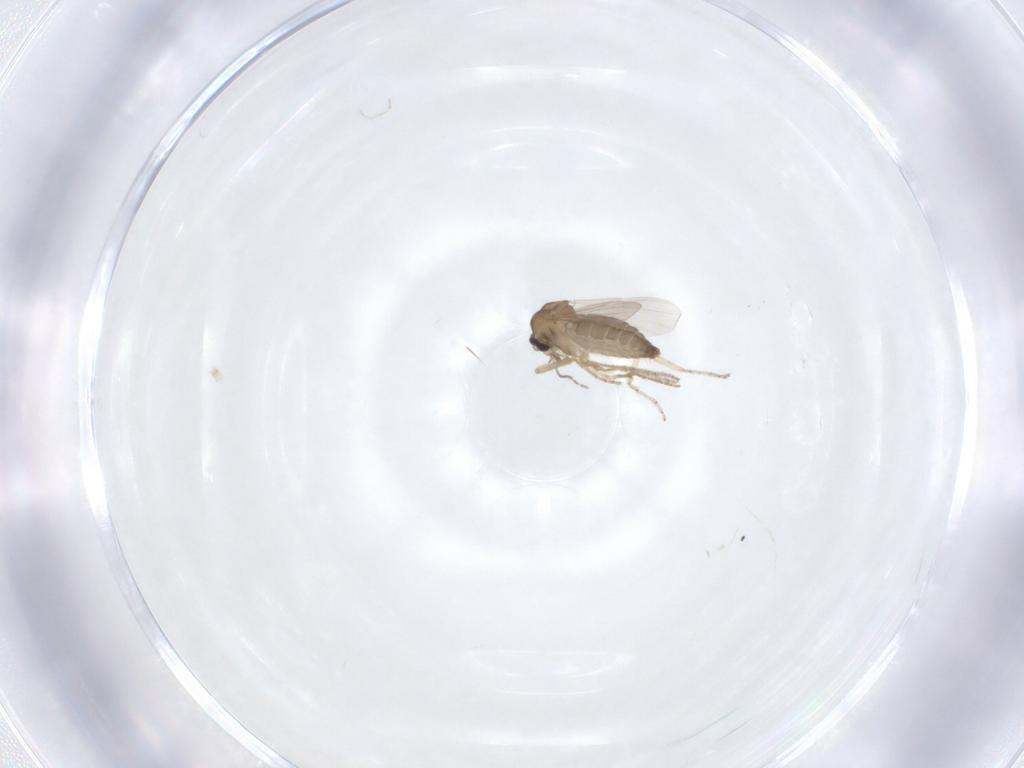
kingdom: Animalia
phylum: Arthropoda
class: Insecta
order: Diptera
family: Ceratopogonidae
